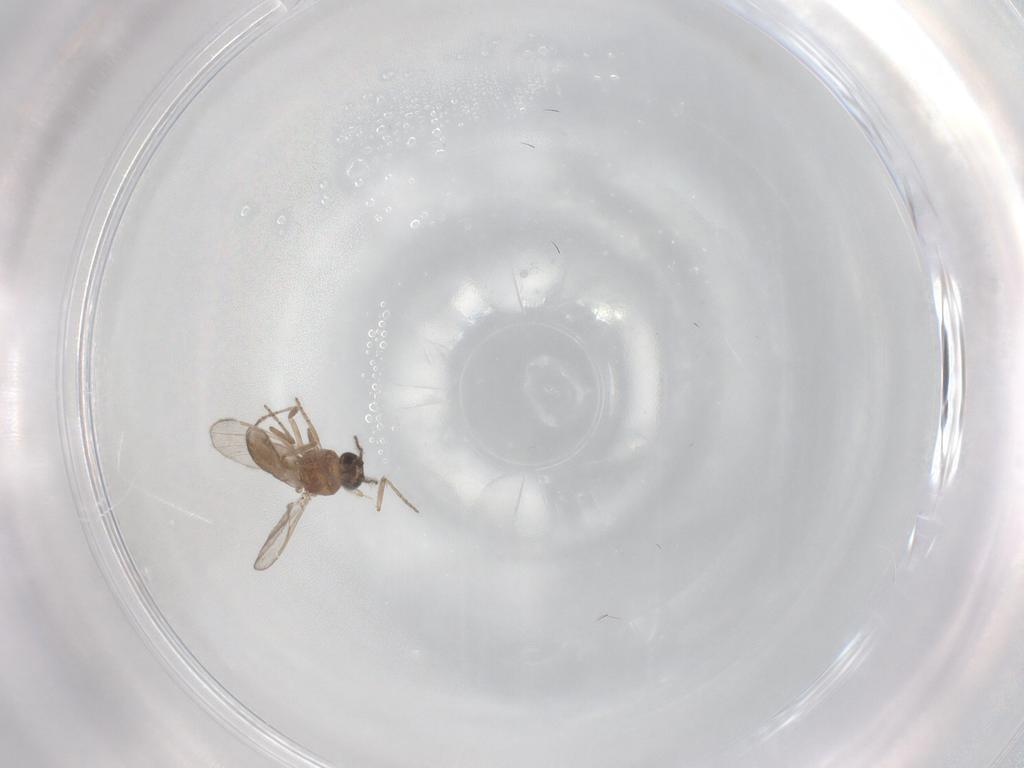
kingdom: Animalia
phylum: Arthropoda
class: Insecta
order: Diptera
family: Ceratopogonidae
